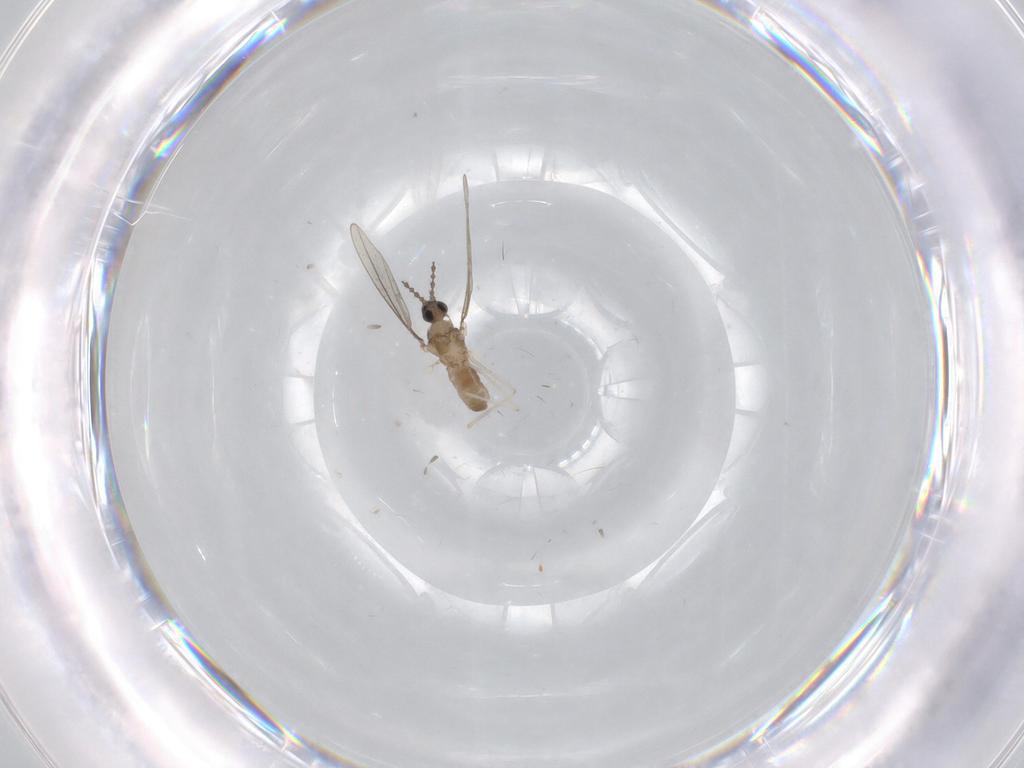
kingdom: Animalia
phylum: Arthropoda
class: Insecta
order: Diptera
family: Cecidomyiidae
